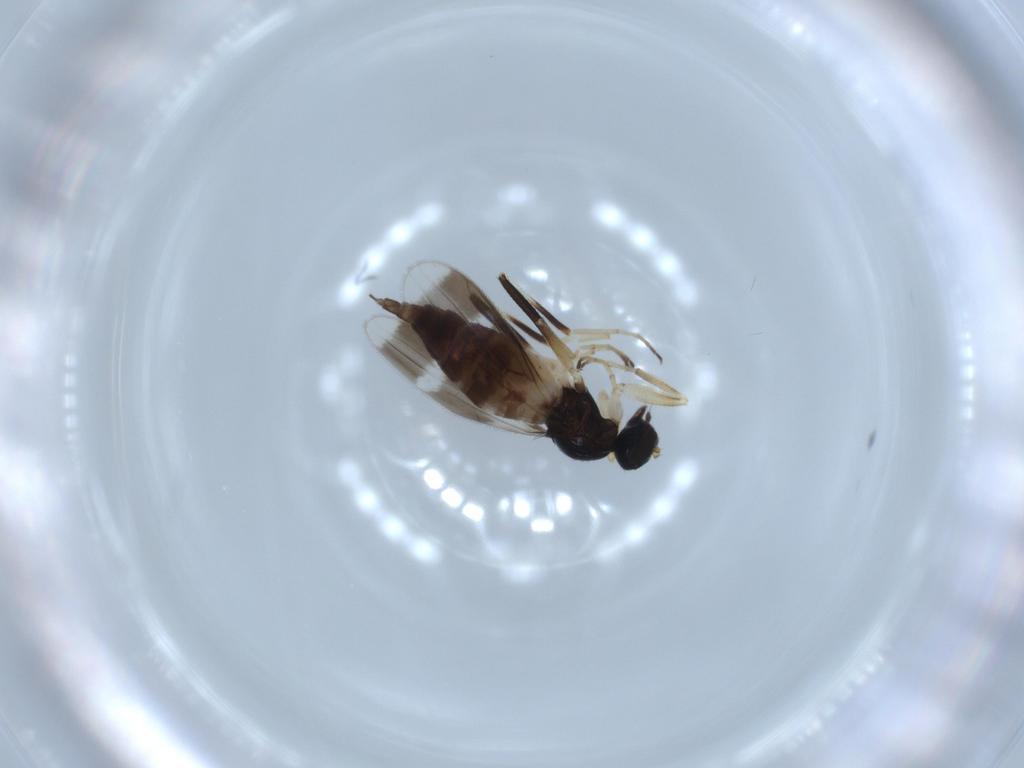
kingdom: Animalia
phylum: Arthropoda
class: Insecta
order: Diptera
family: Hybotidae
